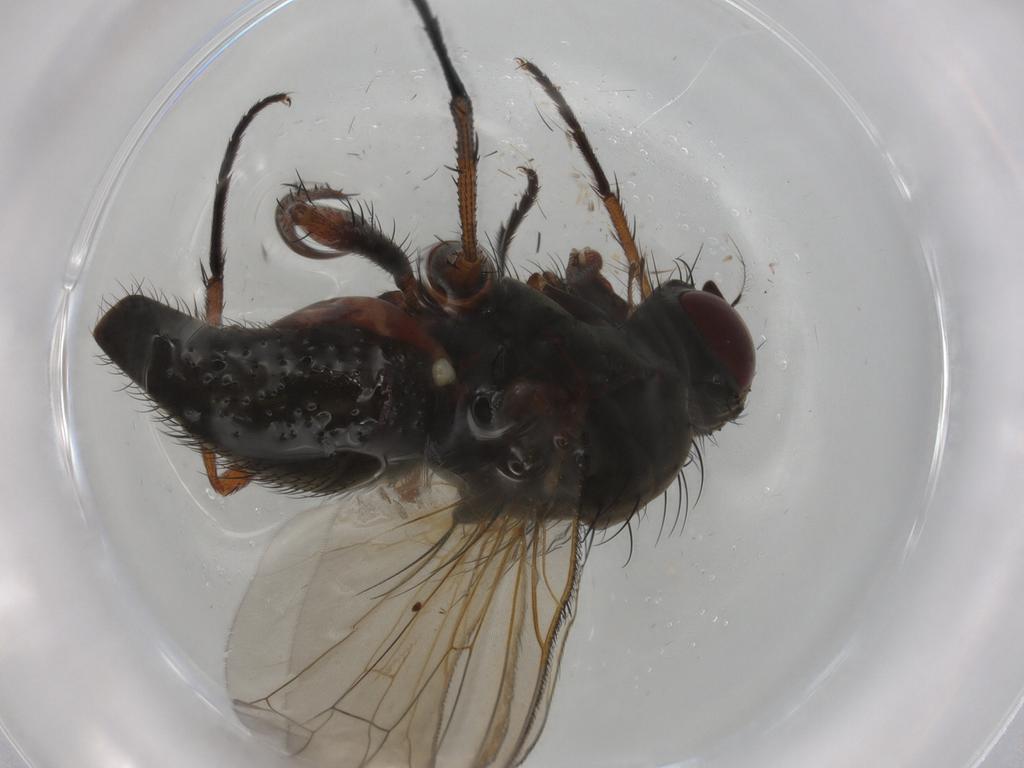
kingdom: Animalia
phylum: Arthropoda
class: Insecta
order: Diptera
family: Anthomyiidae
